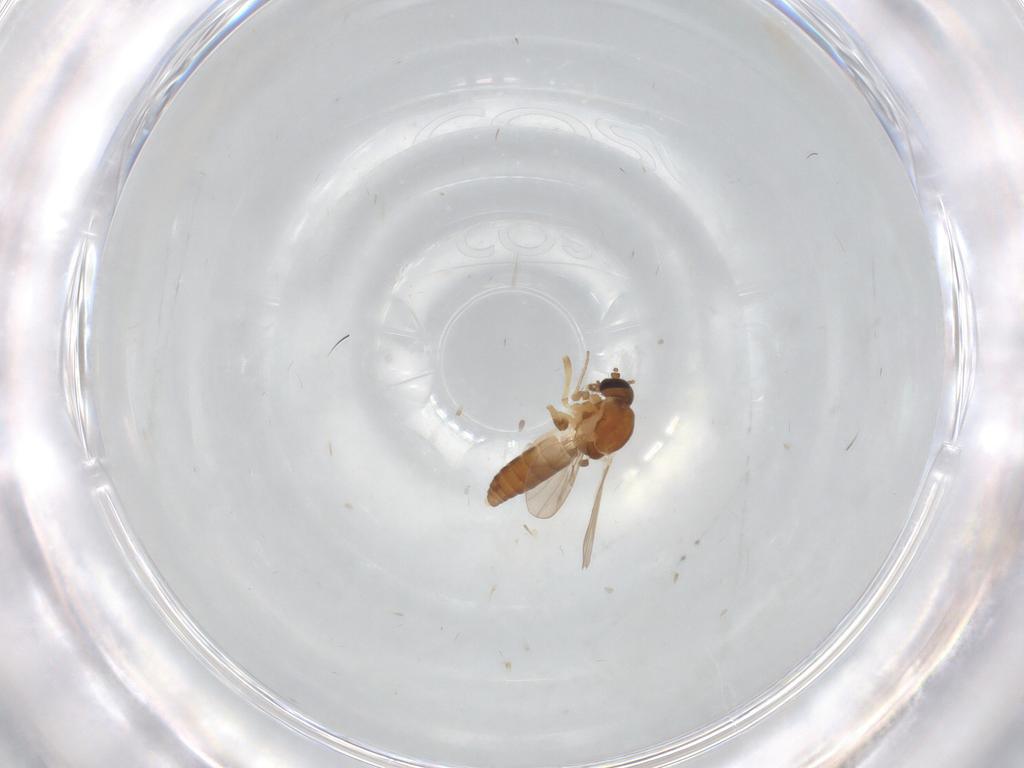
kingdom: Animalia
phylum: Arthropoda
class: Insecta
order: Diptera
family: Ceratopogonidae
